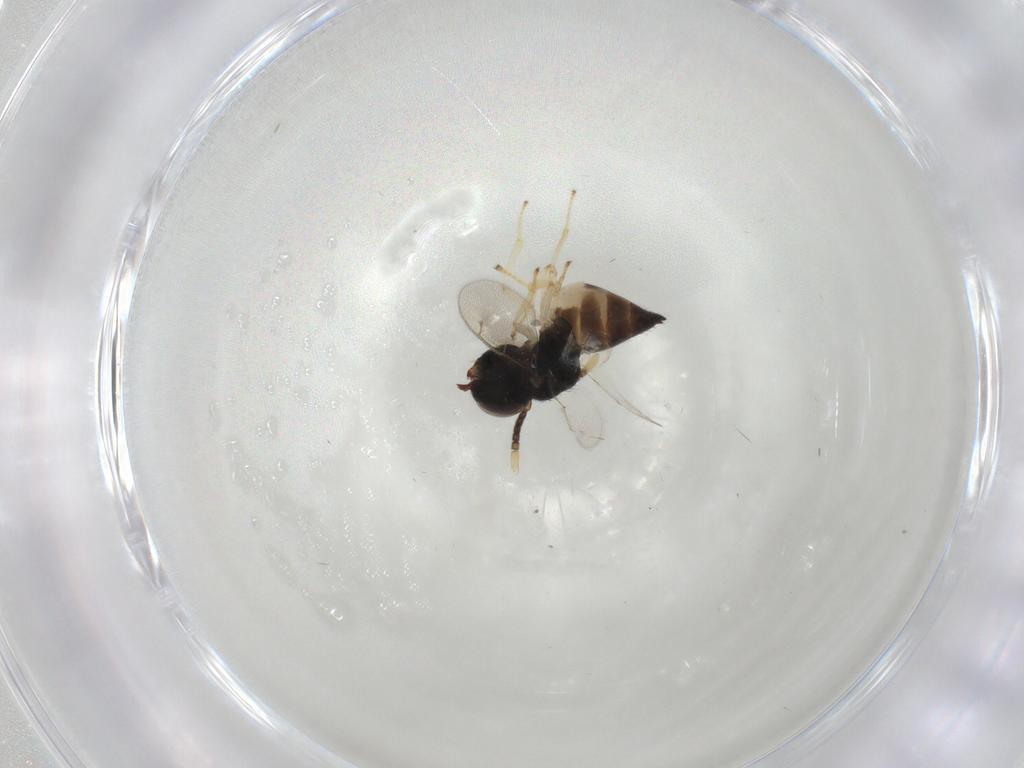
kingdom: Animalia
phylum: Arthropoda
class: Insecta
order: Hymenoptera
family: Pteromalidae
